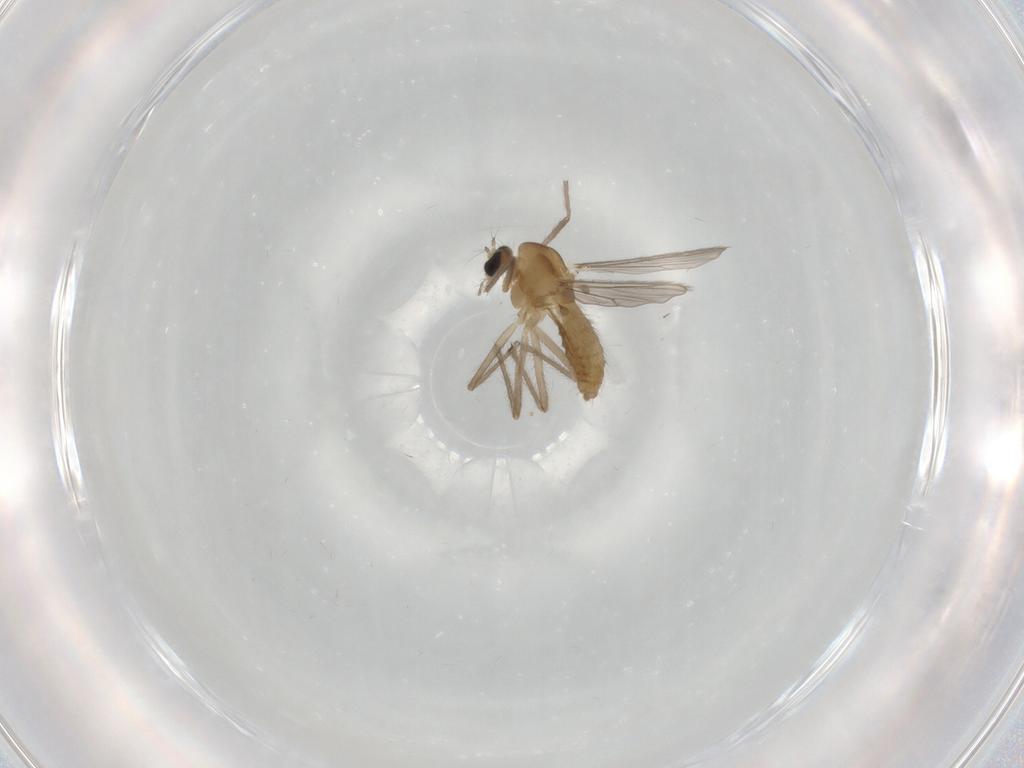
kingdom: Animalia
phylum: Arthropoda
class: Insecta
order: Diptera
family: Chironomidae
